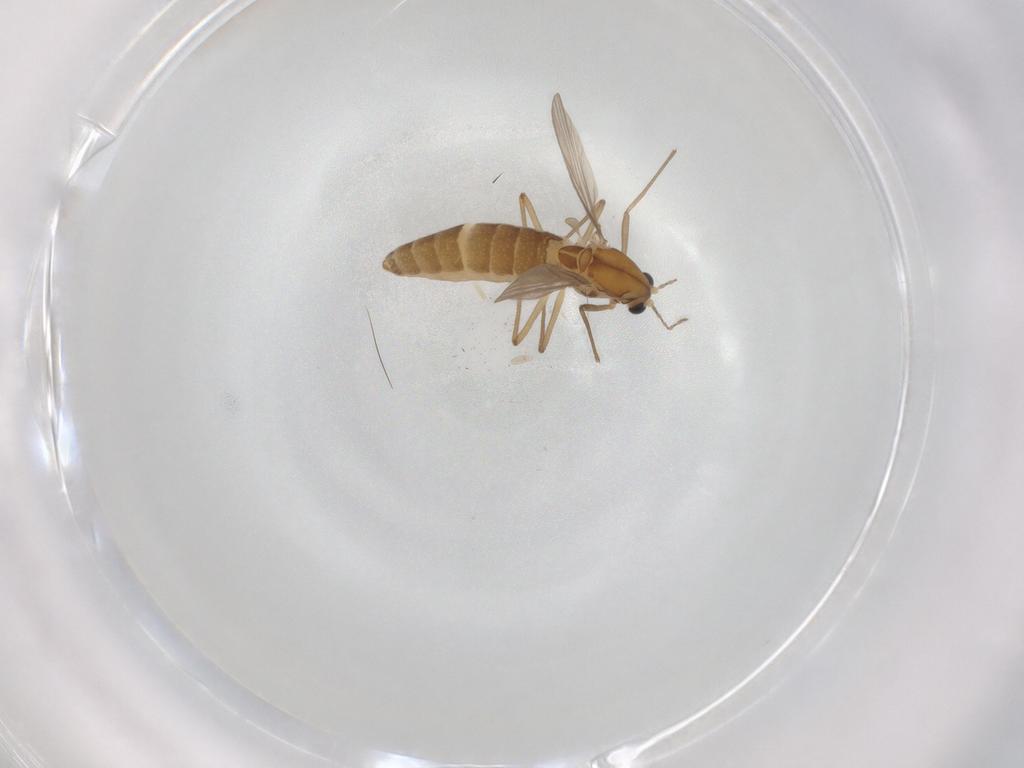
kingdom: Animalia
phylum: Arthropoda
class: Insecta
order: Diptera
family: Chironomidae
